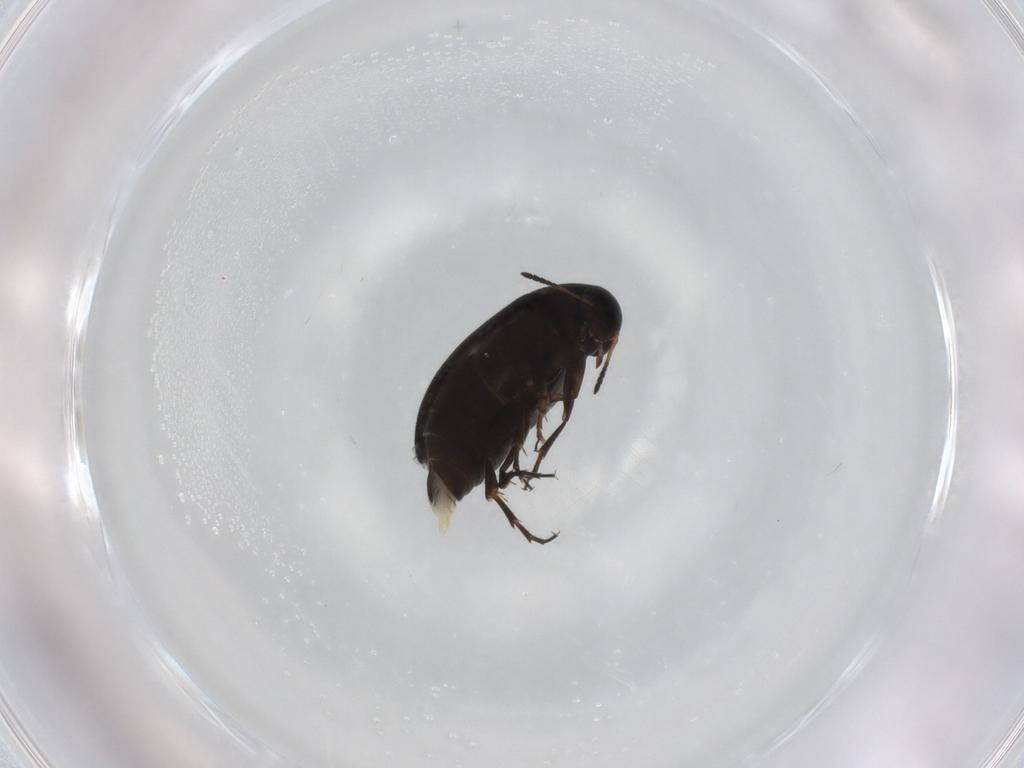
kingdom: Animalia
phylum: Arthropoda
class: Insecta
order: Coleoptera
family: Scraptiidae
